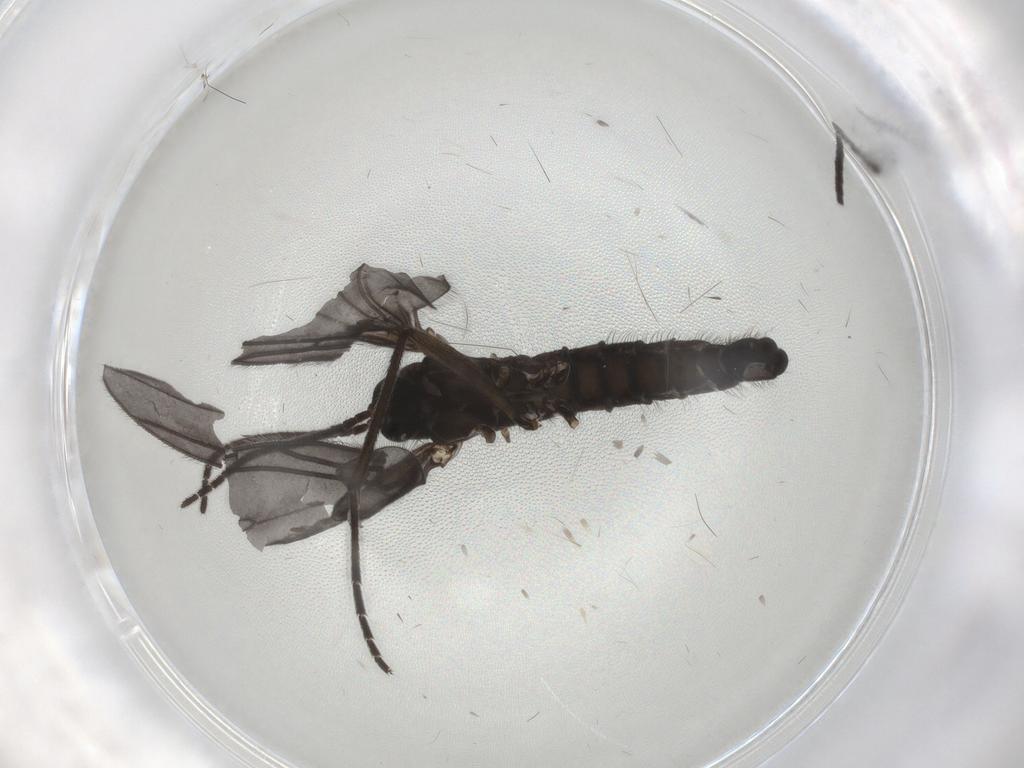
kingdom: Animalia
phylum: Arthropoda
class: Insecta
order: Diptera
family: Sciaridae
